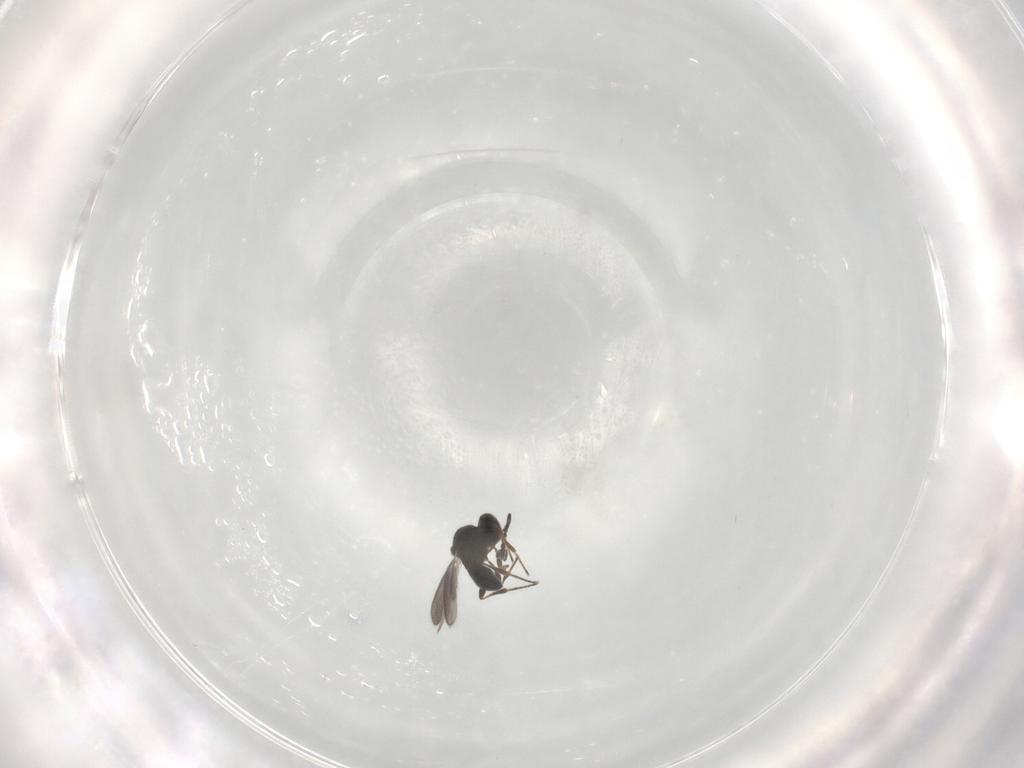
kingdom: Animalia
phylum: Arthropoda
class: Insecta
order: Hymenoptera
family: Platygastridae
